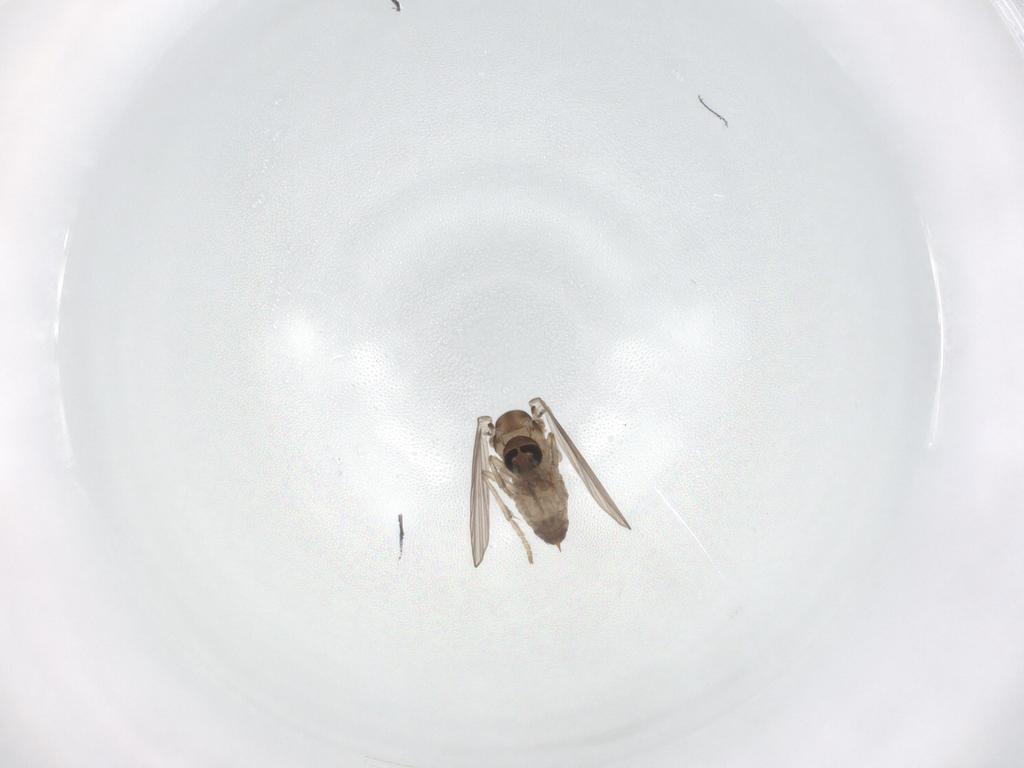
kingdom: Animalia
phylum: Arthropoda
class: Insecta
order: Diptera
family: Psychodidae
